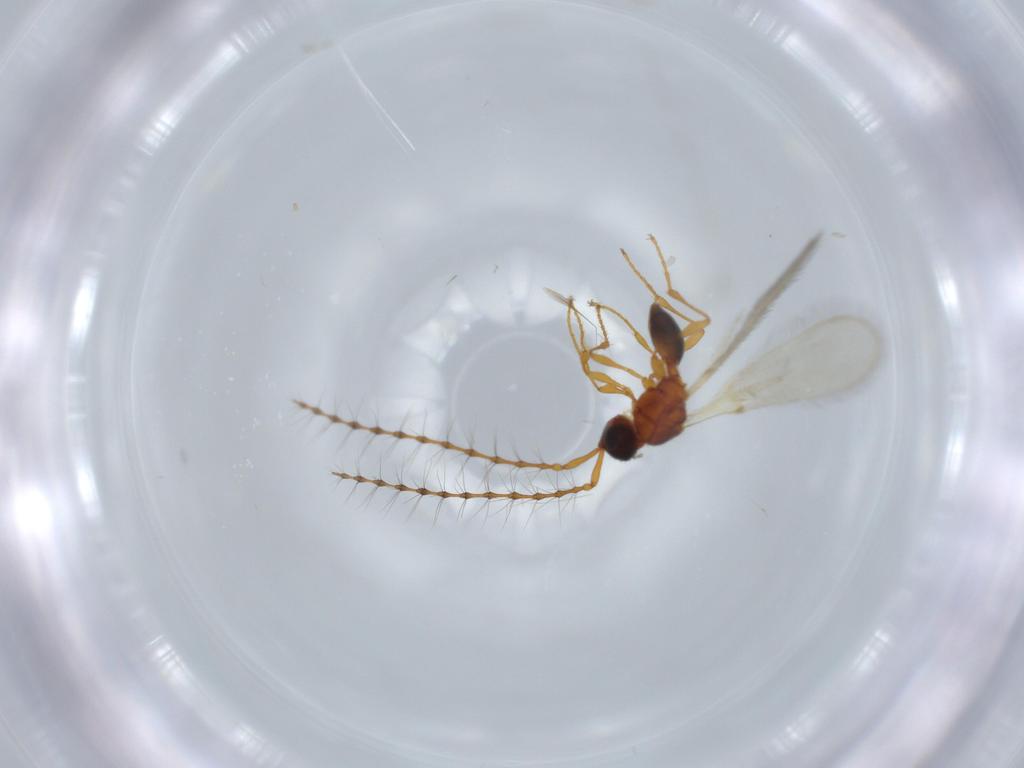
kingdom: Animalia
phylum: Arthropoda
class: Insecta
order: Hymenoptera
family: Diapriidae
